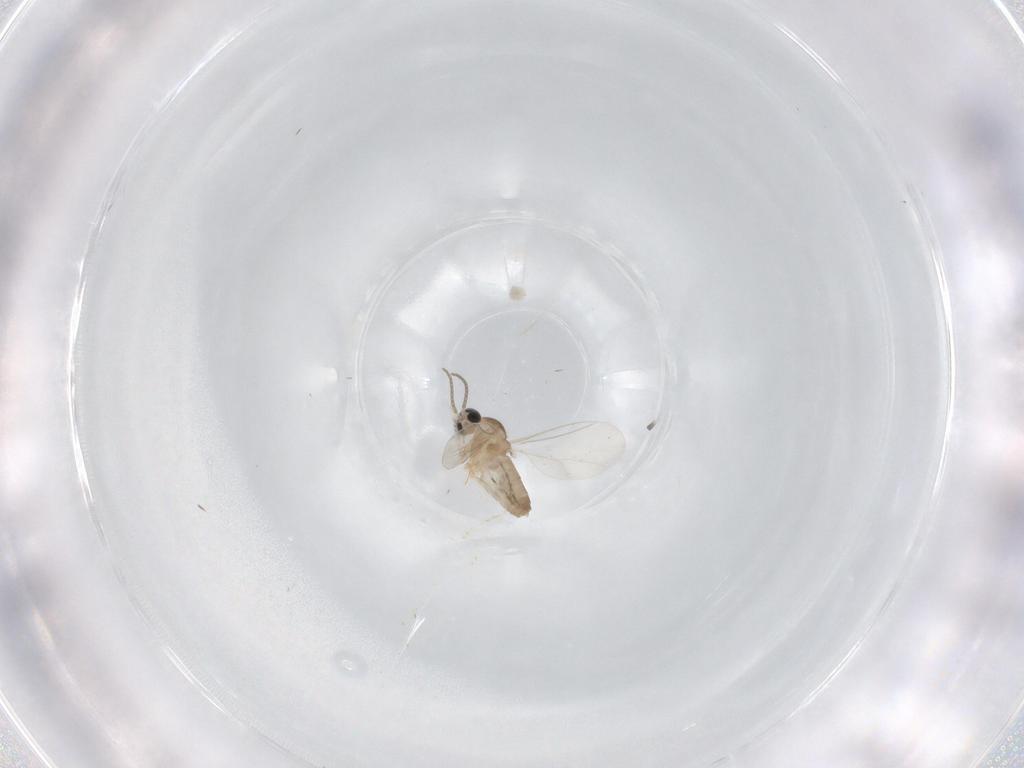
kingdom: Animalia
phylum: Arthropoda
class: Insecta
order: Diptera
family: Cecidomyiidae
